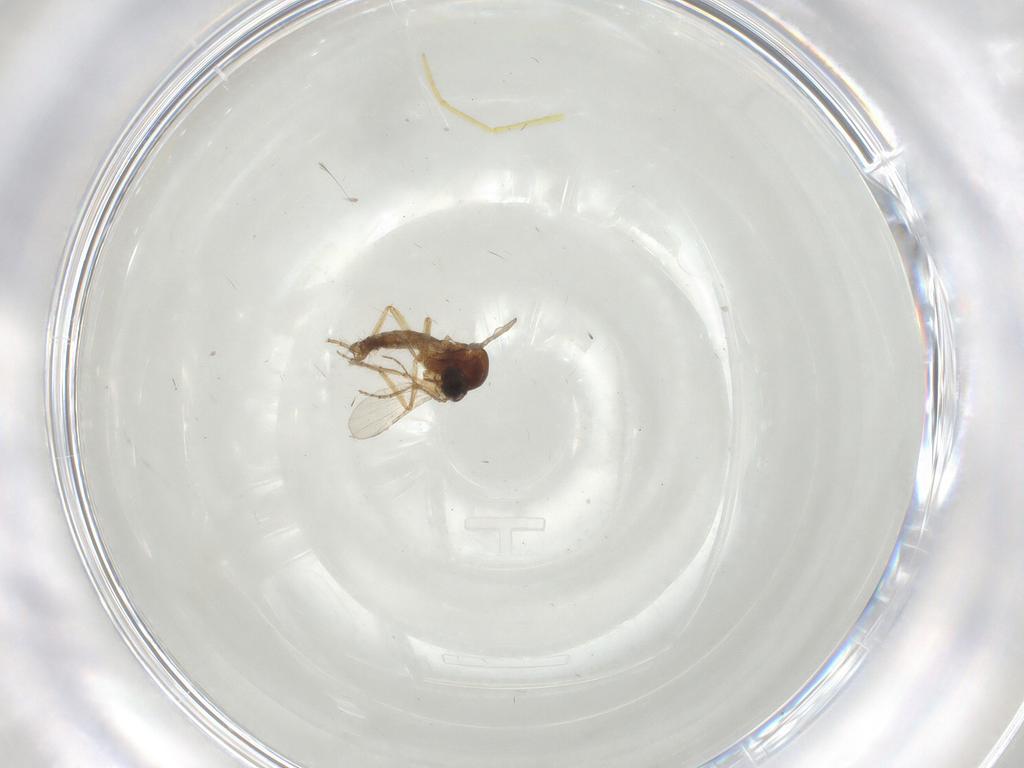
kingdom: Animalia
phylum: Arthropoda
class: Insecta
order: Diptera
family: Ceratopogonidae
